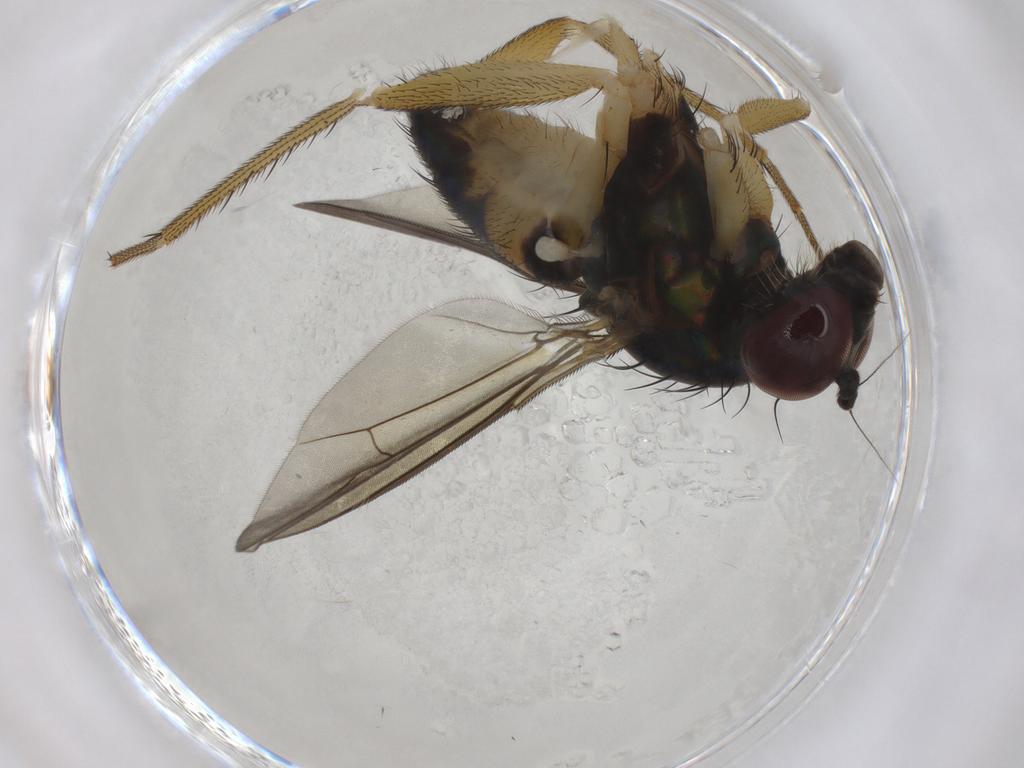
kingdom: Animalia
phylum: Arthropoda
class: Insecta
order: Diptera
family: Dolichopodidae
